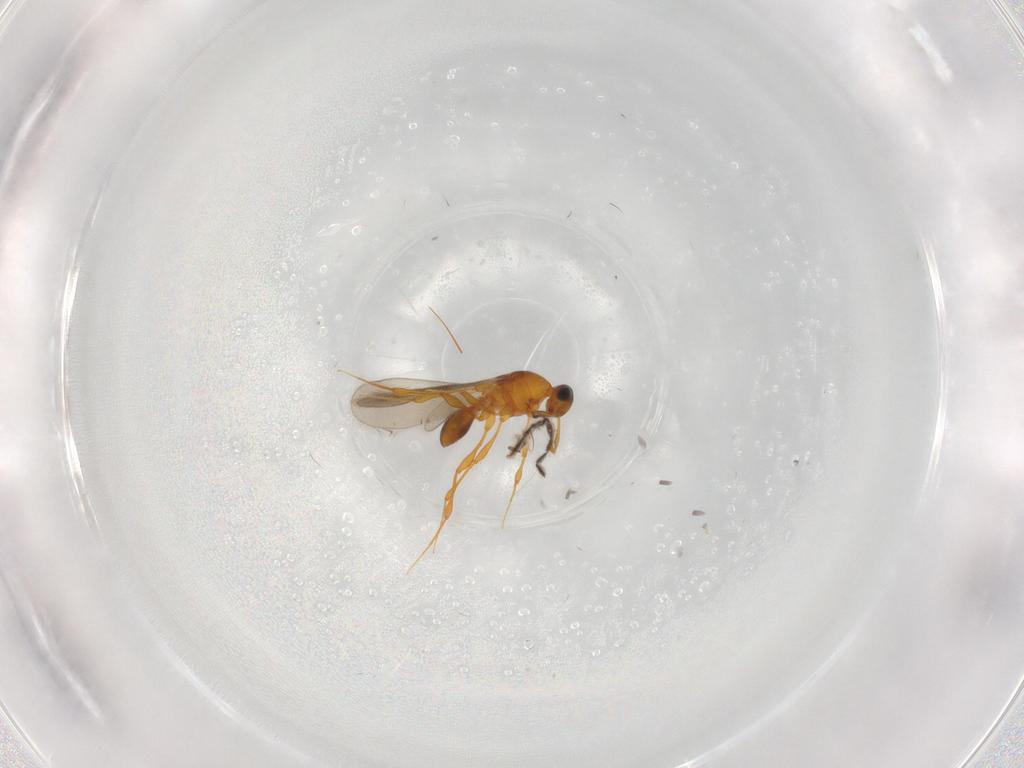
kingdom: Animalia
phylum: Arthropoda
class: Insecta
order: Hymenoptera
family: Platygastridae
